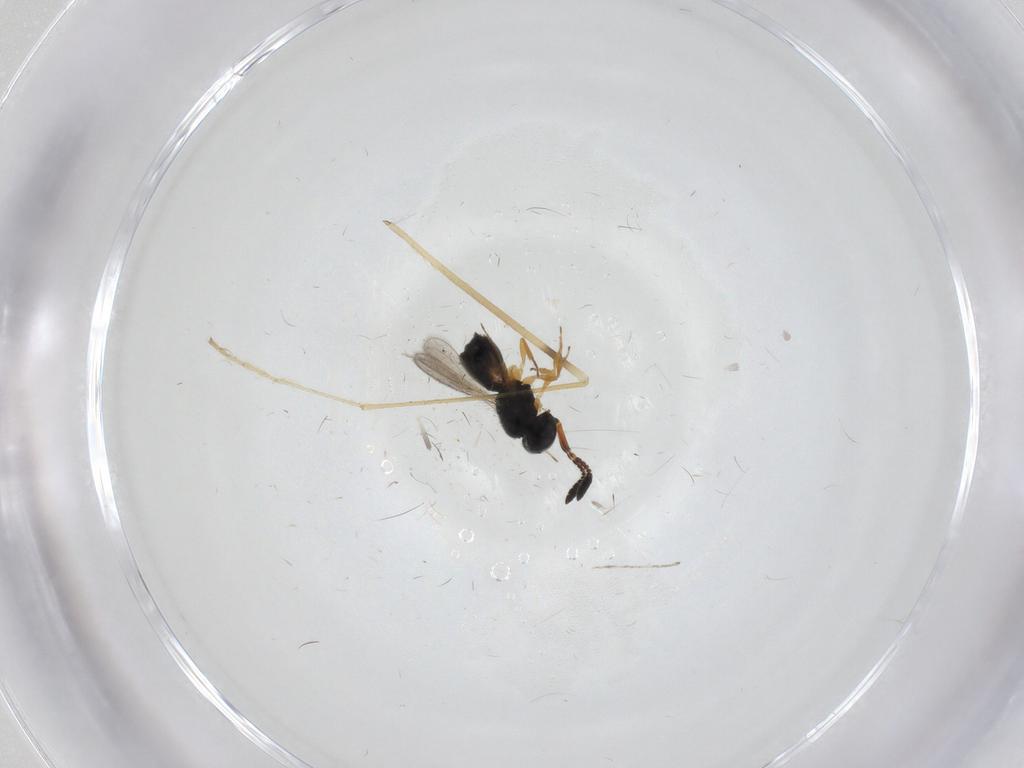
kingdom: Animalia
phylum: Arthropoda
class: Insecta
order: Hymenoptera
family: Scelionidae
